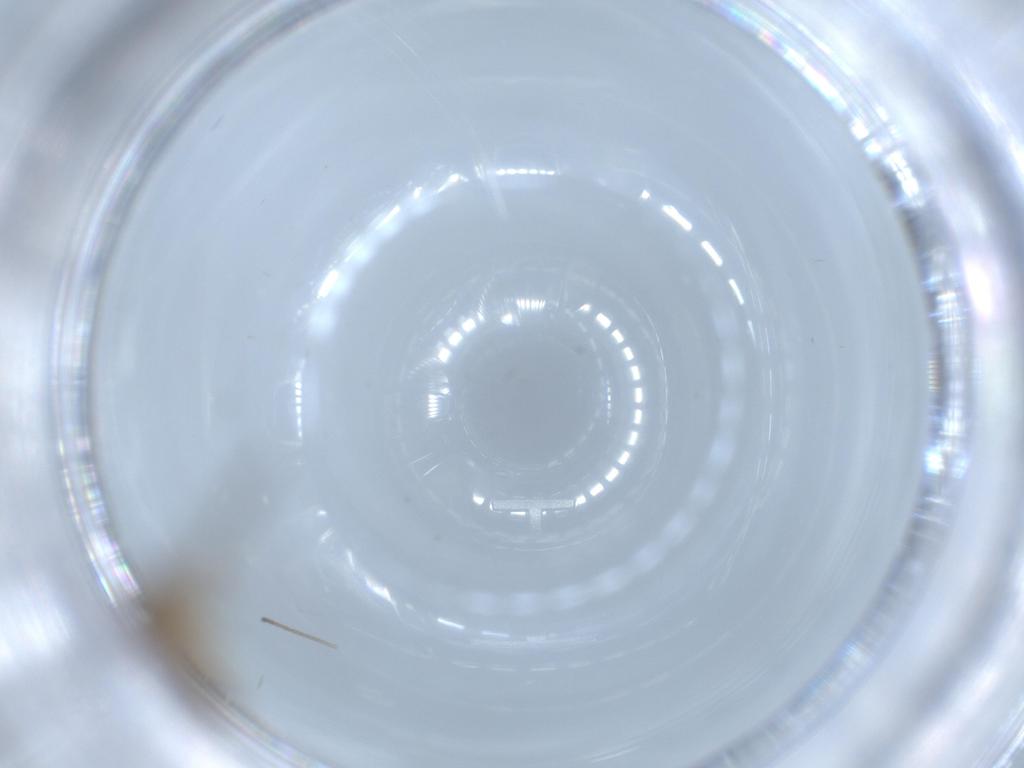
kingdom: Animalia
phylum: Arthropoda
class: Insecta
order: Diptera
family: Cecidomyiidae
